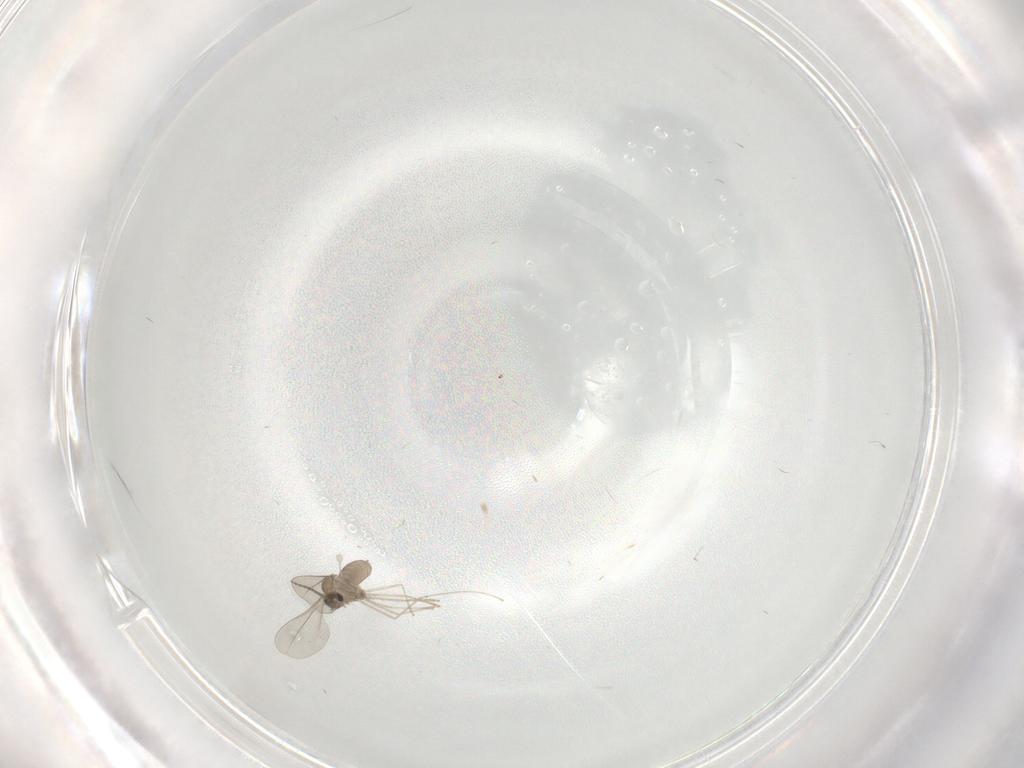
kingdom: Animalia
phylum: Arthropoda
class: Insecta
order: Diptera
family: Cecidomyiidae
